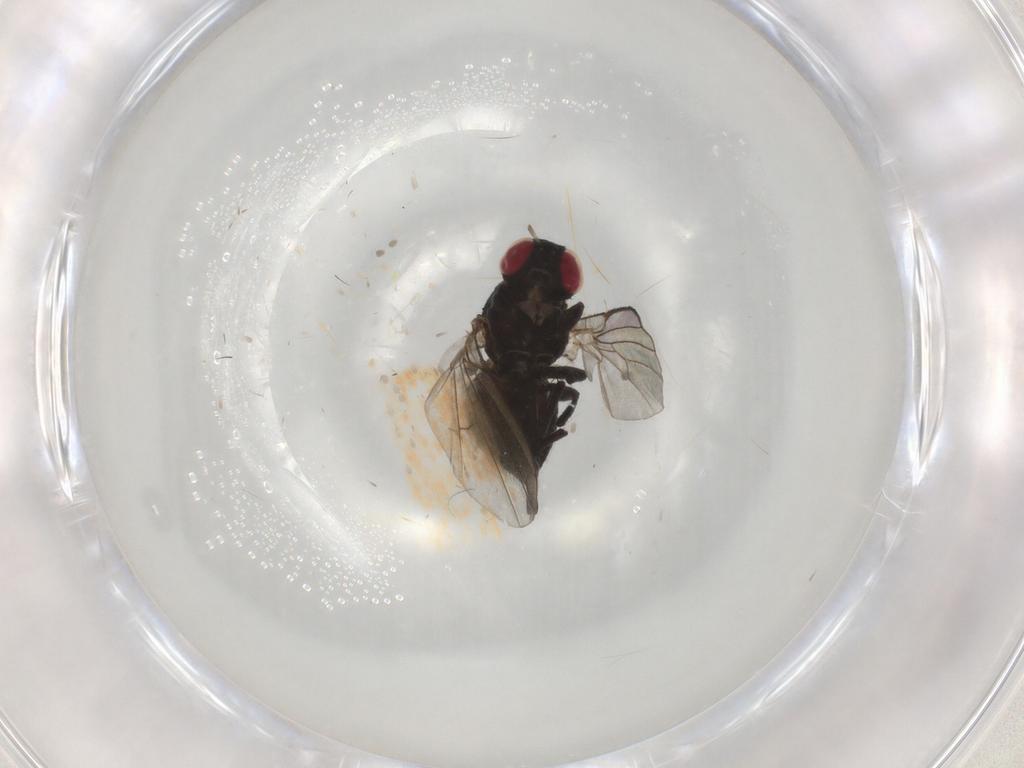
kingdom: Animalia
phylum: Arthropoda
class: Insecta
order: Diptera
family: Agromyzidae
